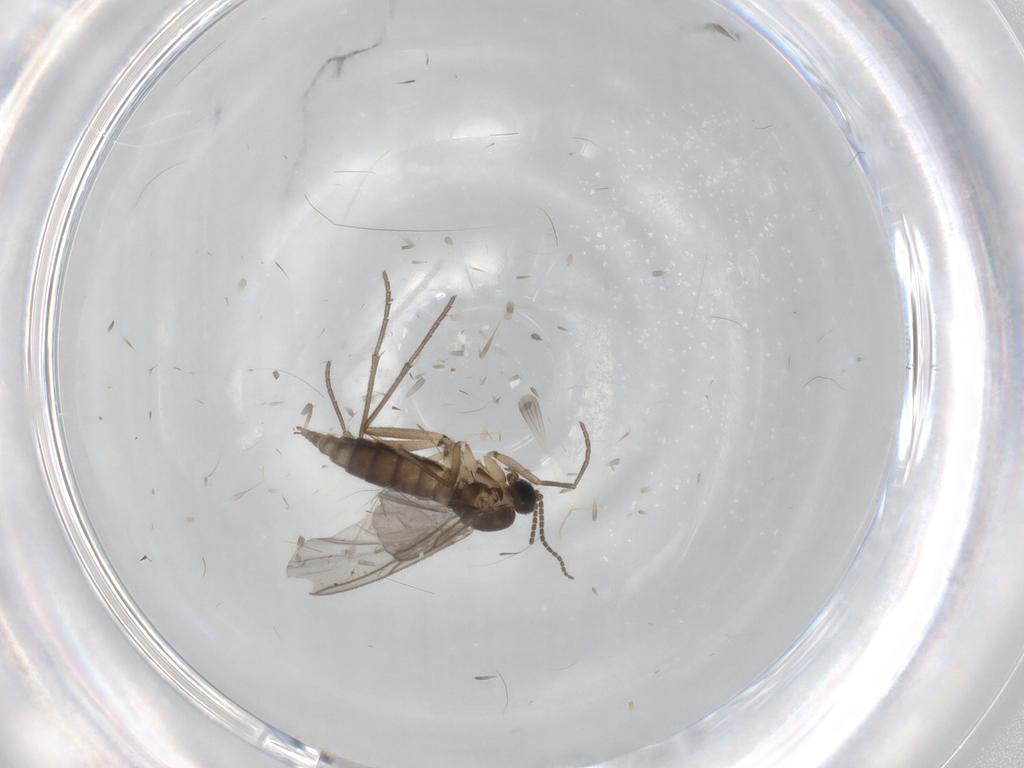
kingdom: Animalia
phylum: Arthropoda
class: Insecta
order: Diptera
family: Chironomidae
